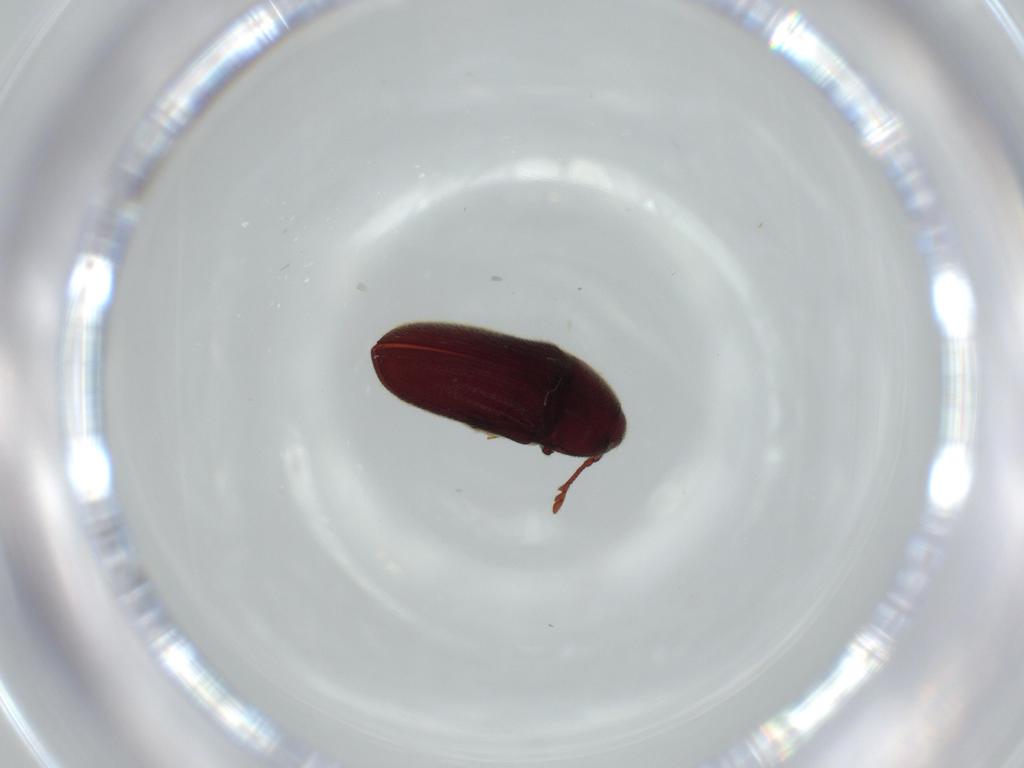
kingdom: Animalia
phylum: Arthropoda
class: Insecta
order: Coleoptera
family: Throscidae
